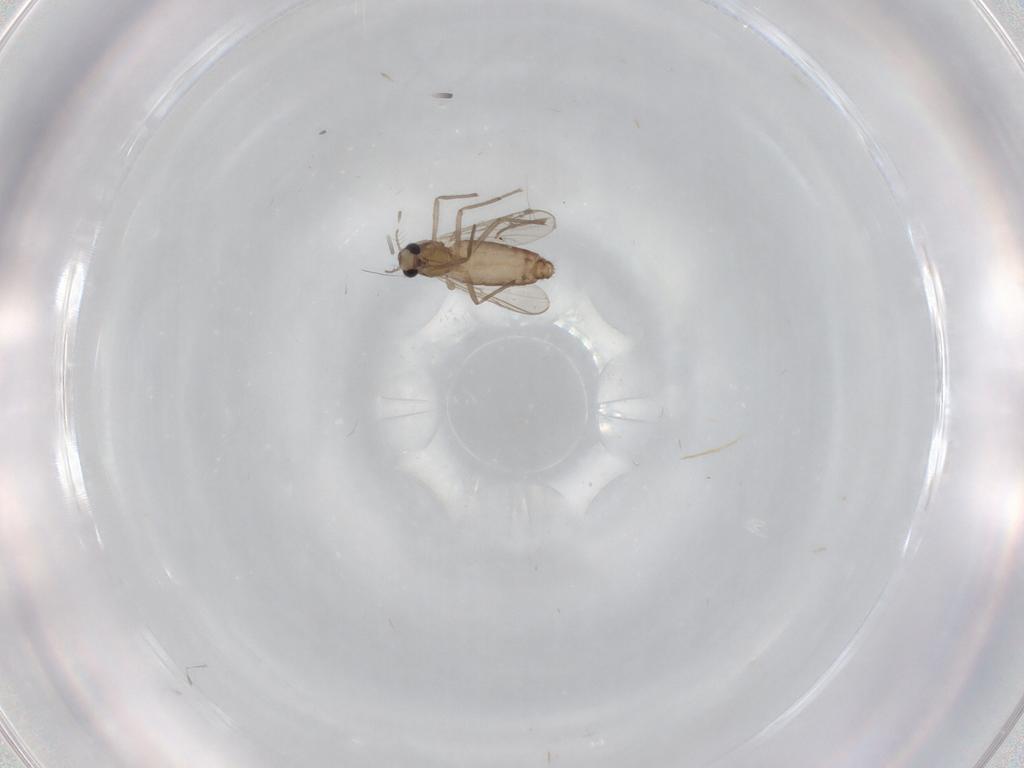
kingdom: Animalia
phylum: Arthropoda
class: Insecta
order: Diptera
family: Chironomidae
